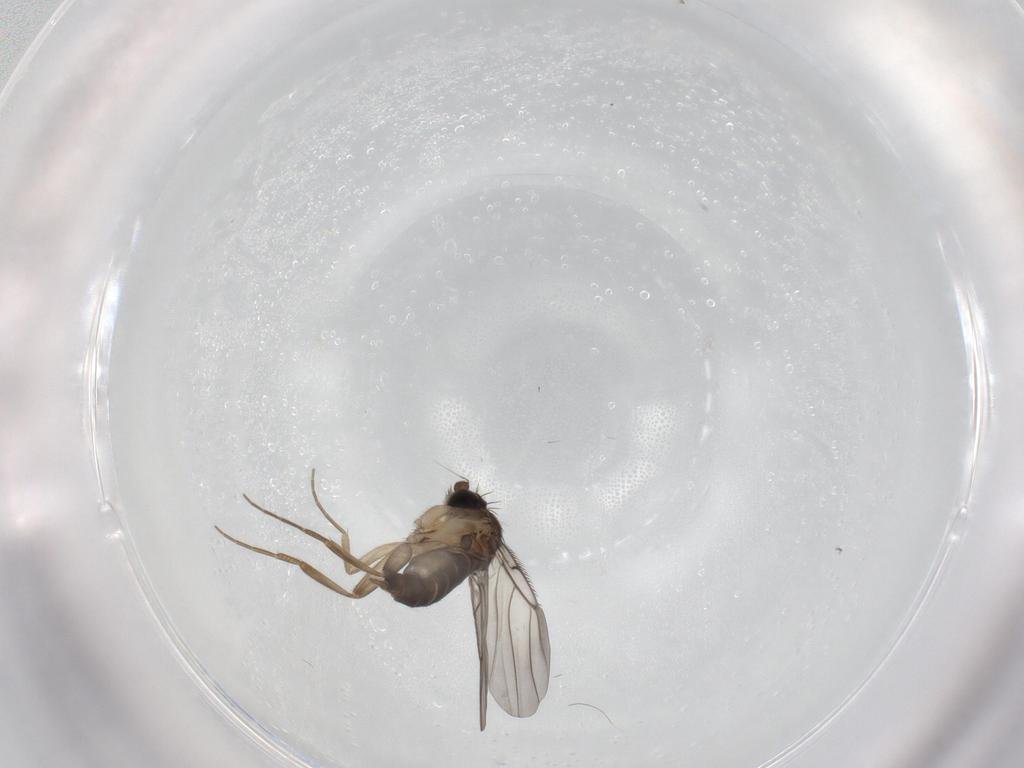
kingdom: Animalia
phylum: Arthropoda
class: Insecta
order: Diptera
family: Phoridae
